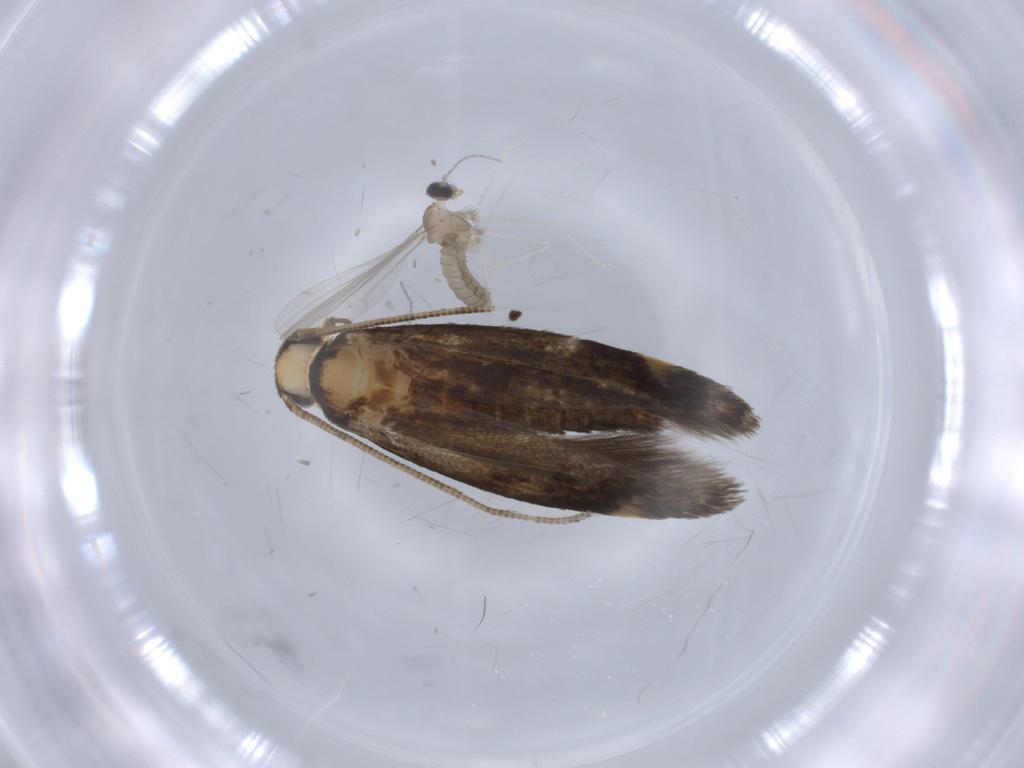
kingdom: Animalia
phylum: Arthropoda
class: Insecta
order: Lepidoptera
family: Tineidae
